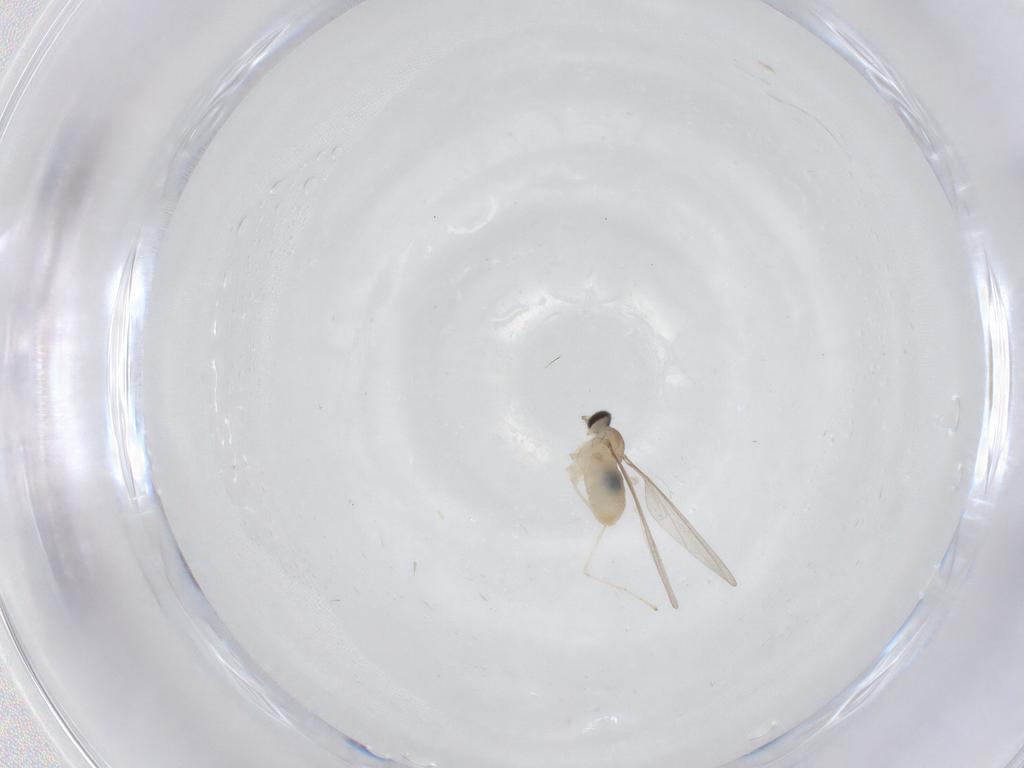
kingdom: Animalia
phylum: Arthropoda
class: Insecta
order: Diptera
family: Cecidomyiidae
